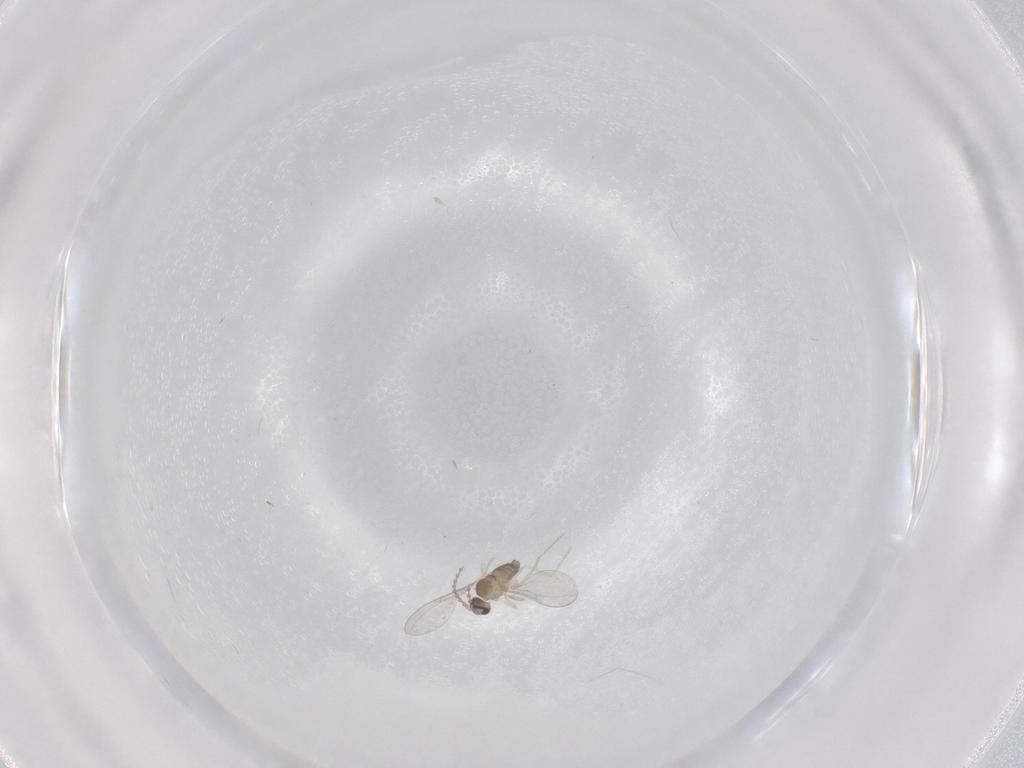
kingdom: Animalia
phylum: Arthropoda
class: Insecta
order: Diptera
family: Cecidomyiidae
